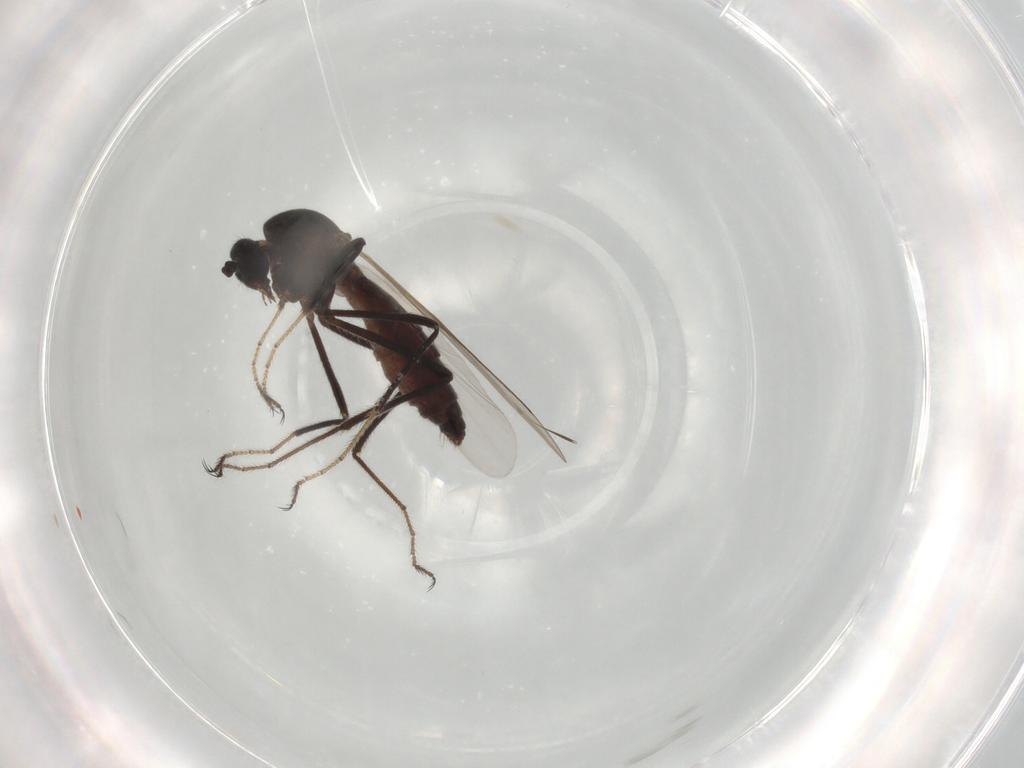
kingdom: Animalia
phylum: Arthropoda
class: Insecta
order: Diptera
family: Ceratopogonidae
